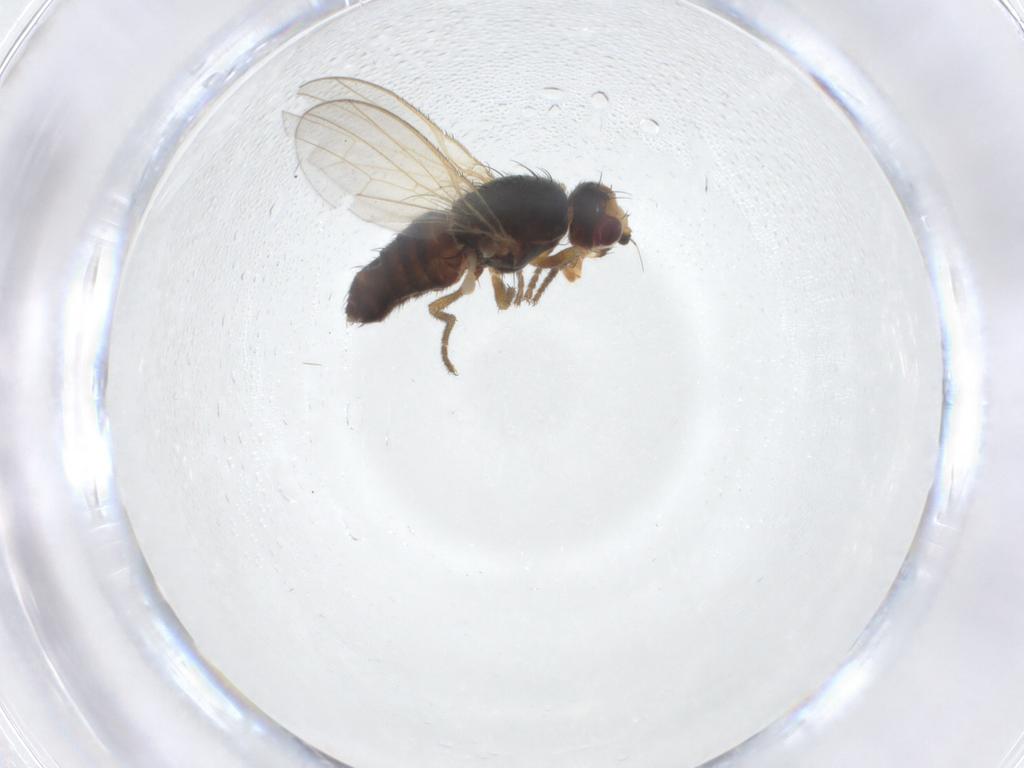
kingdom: Animalia
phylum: Arthropoda
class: Insecta
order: Diptera
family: Heleomyzidae
